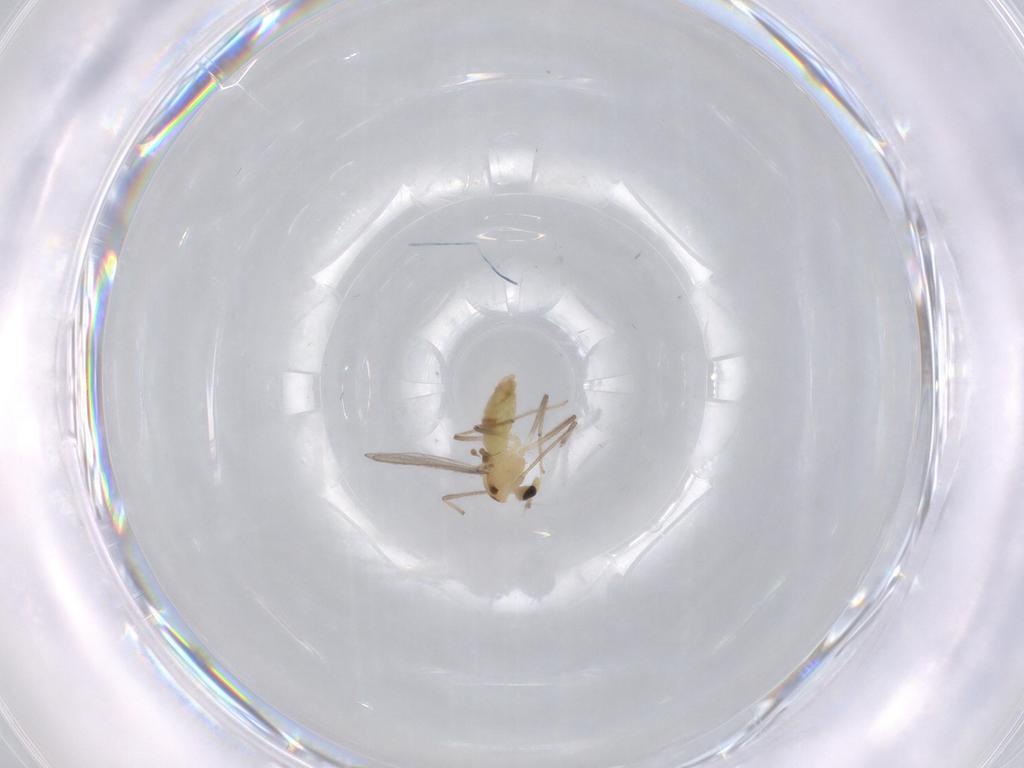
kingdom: Animalia
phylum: Arthropoda
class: Insecta
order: Diptera
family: Chironomidae
